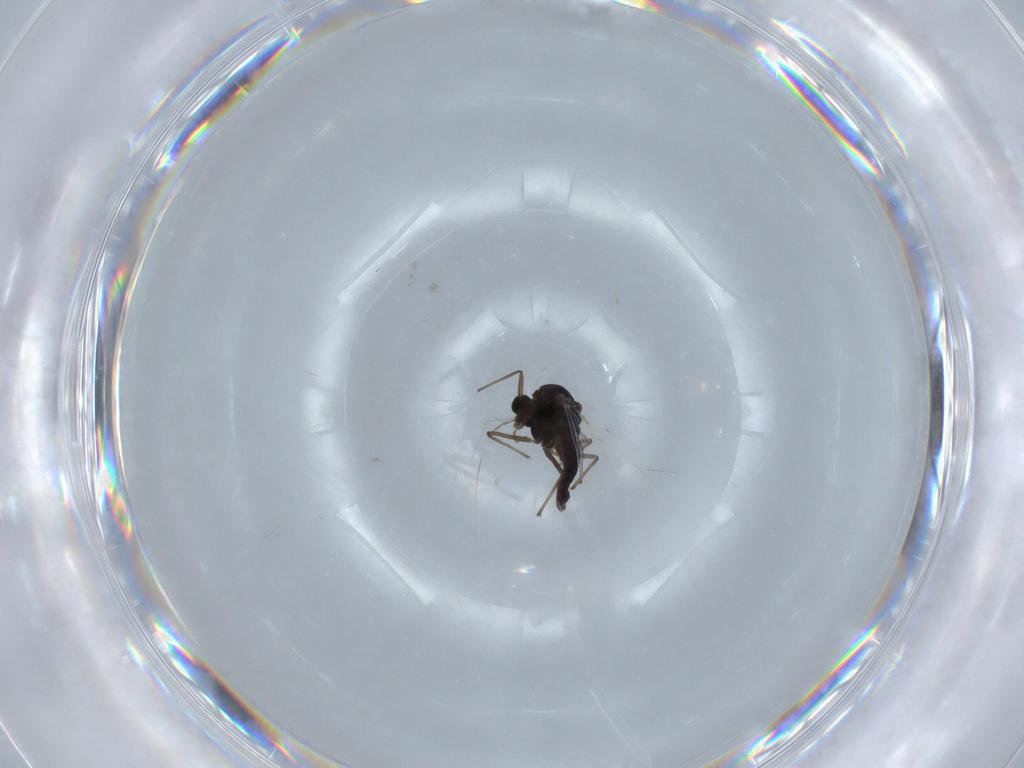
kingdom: Animalia
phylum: Arthropoda
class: Insecta
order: Diptera
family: Chironomidae
